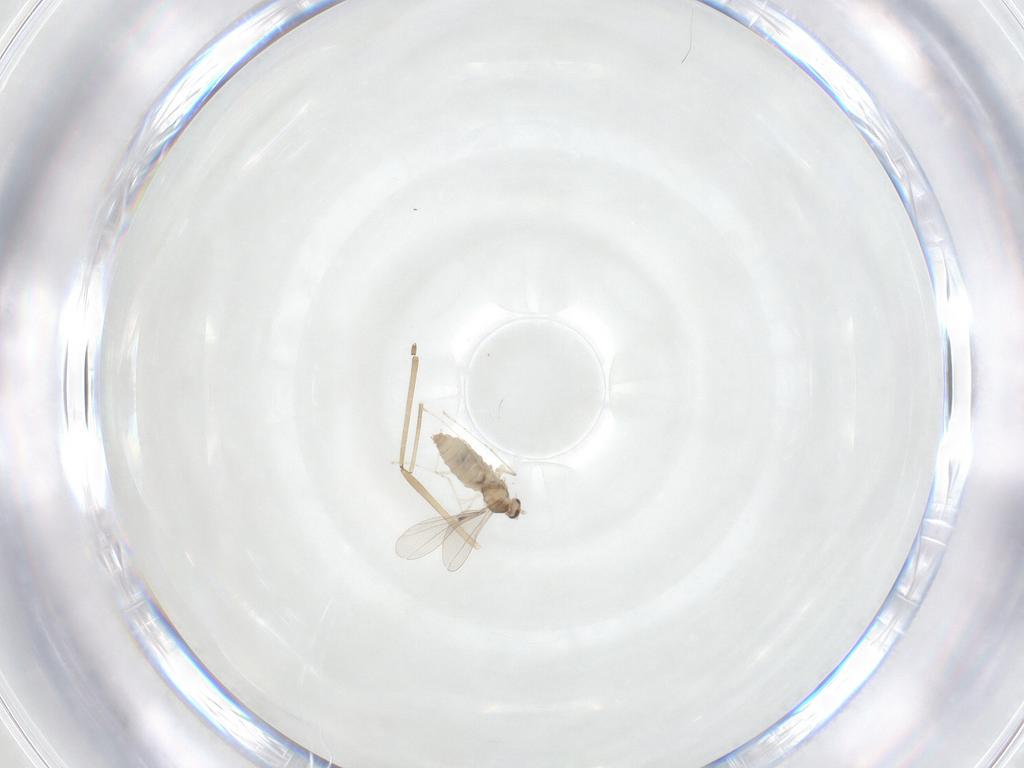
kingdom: Animalia
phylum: Arthropoda
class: Insecta
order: Diptera
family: Cecidomyiidae
